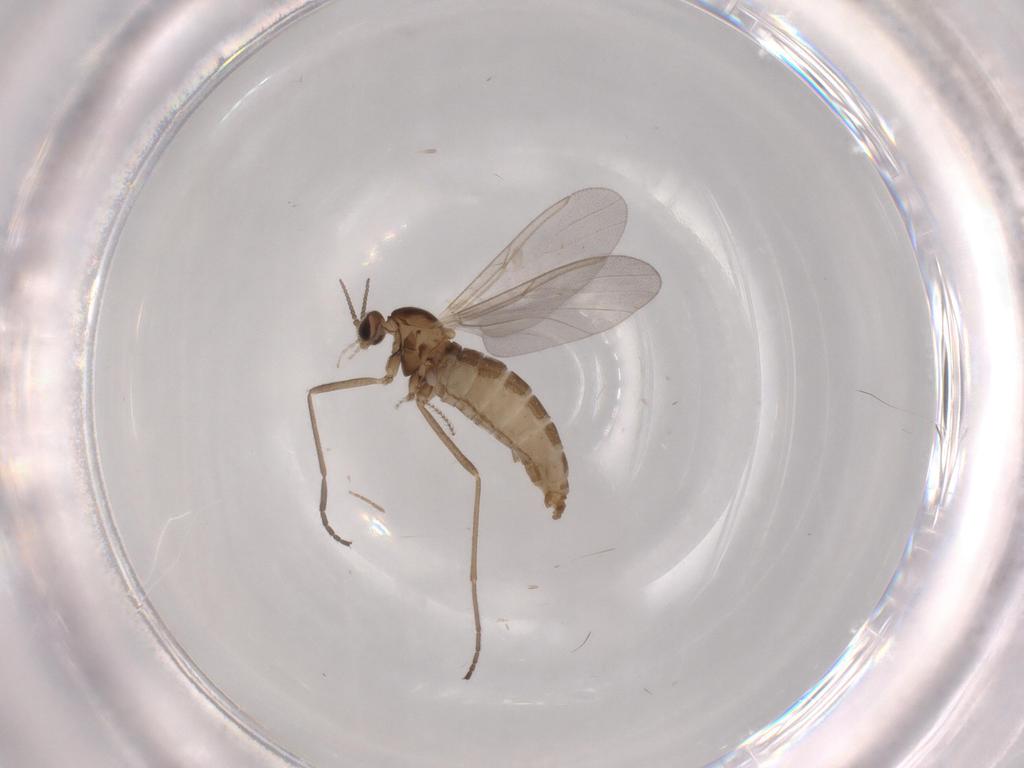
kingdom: Animalia
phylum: Arthropoda
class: Insecta
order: Diptera
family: Cecidomyiidae
